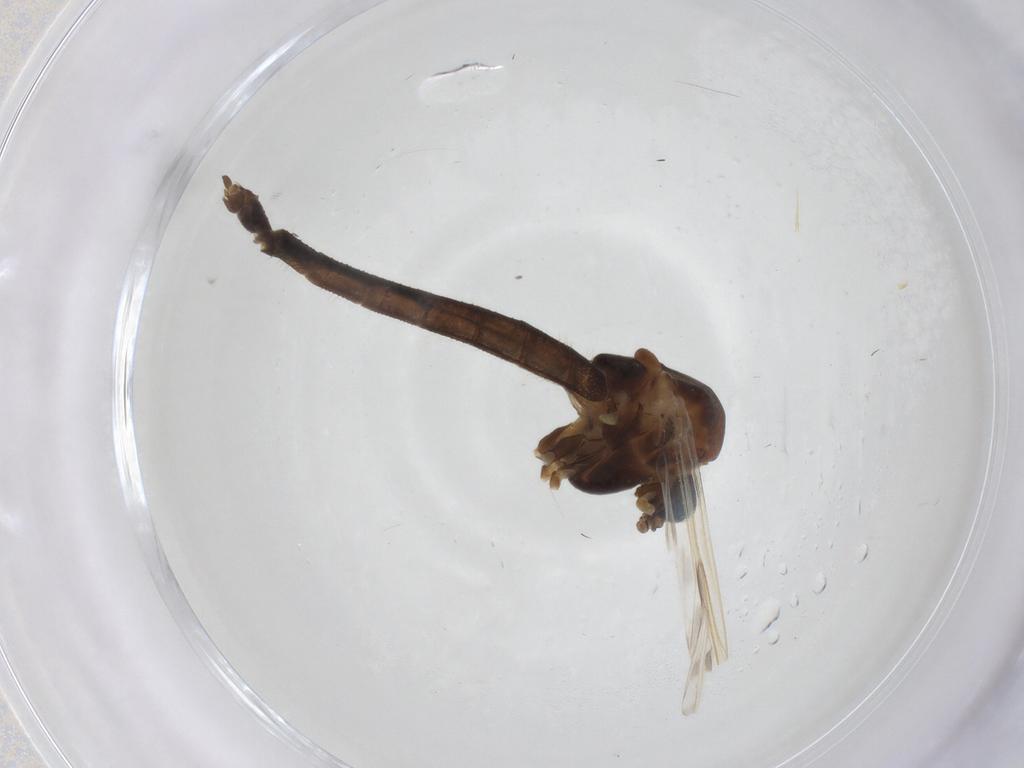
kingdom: Animalia
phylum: Arthropoda
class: Insecta
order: Diptera
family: Ceratopogonidae
